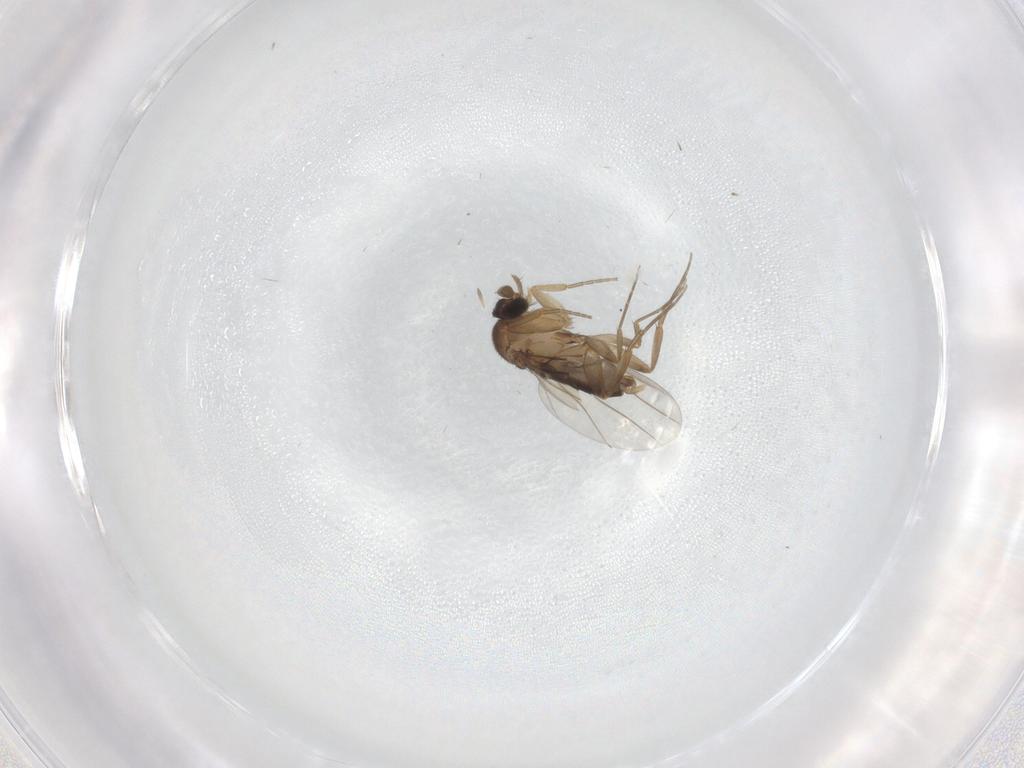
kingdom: Animalia
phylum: Arthropoda
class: Insecta
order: Diptera
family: Cecidomyiidae
